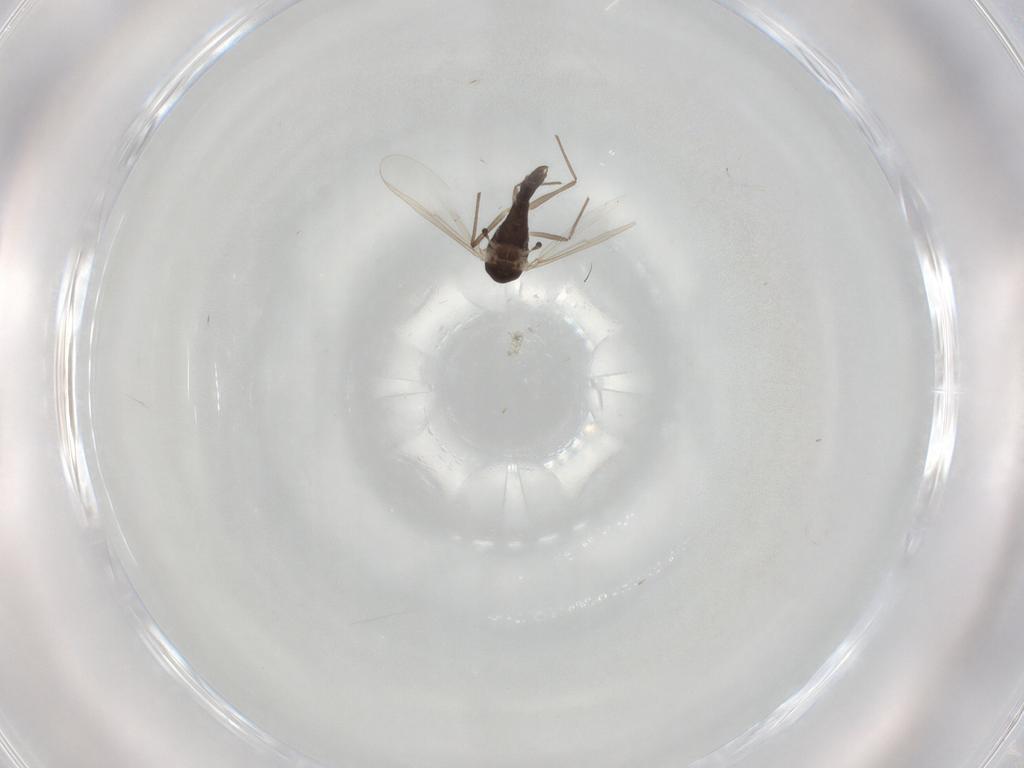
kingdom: Animalia
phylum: Arthropoda
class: Insecta
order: Diptera
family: Chironomidae
